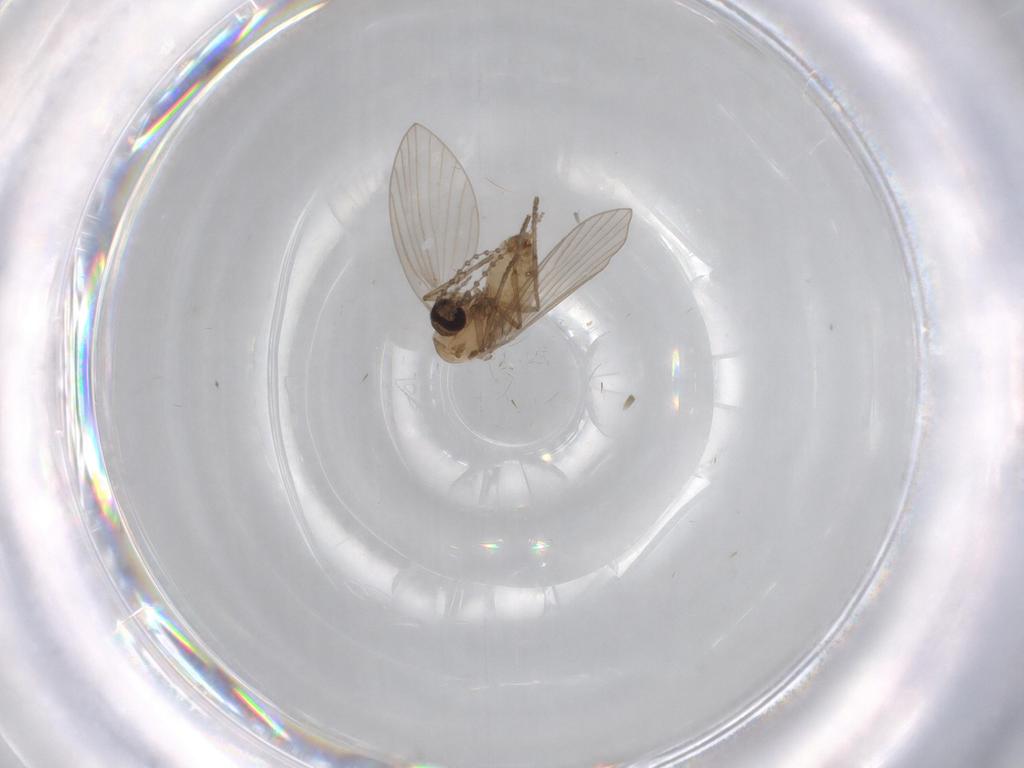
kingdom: Animalia
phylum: Arthropoda
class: Insecta
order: Diptera
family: Psychodidae
